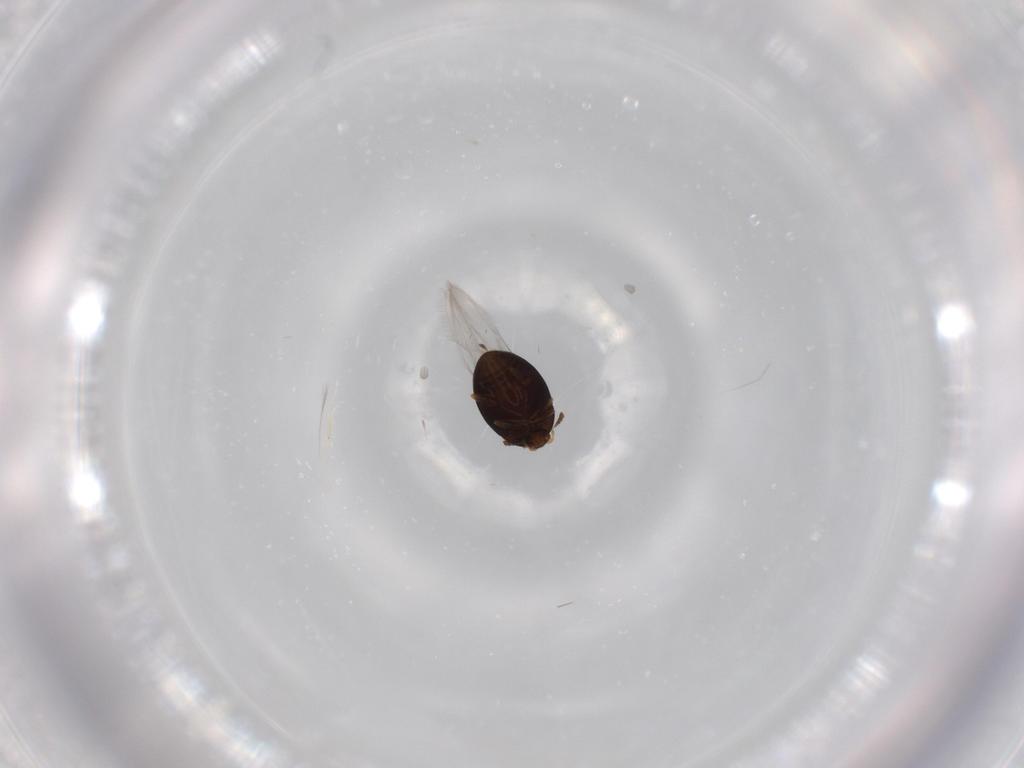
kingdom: Animalia
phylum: Arthropoda
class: Insecta
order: Coleoptera
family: Corylophidae
